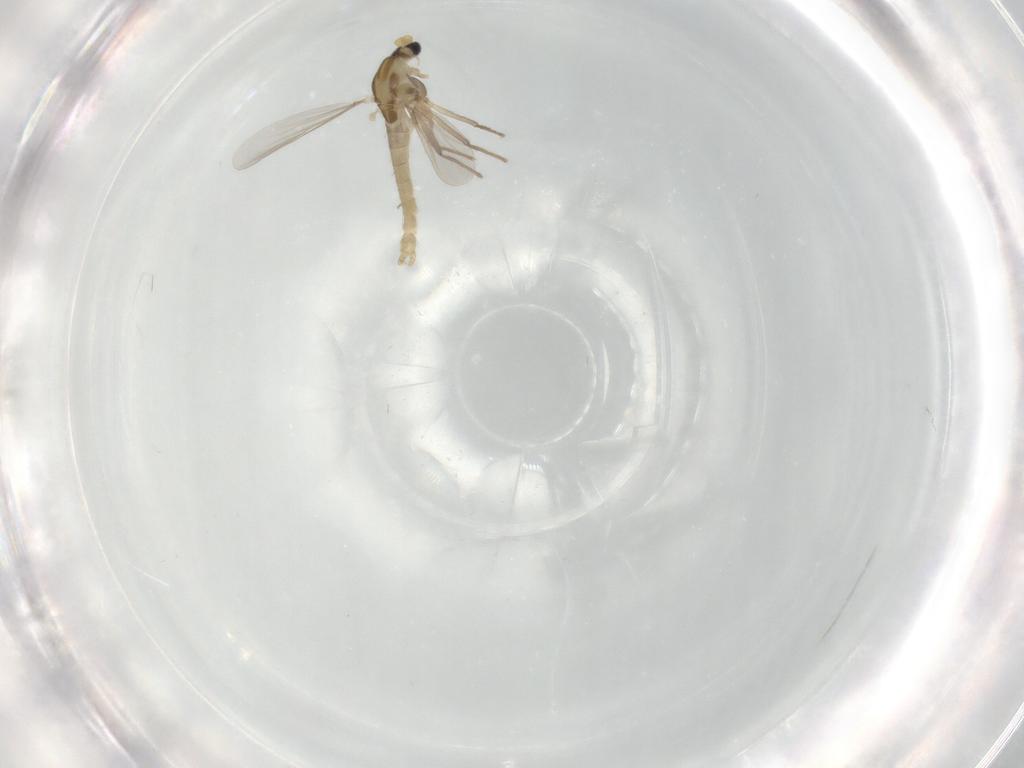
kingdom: Animalia
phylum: Arthropoda
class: Insecta
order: Diptera
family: Chironomidae
